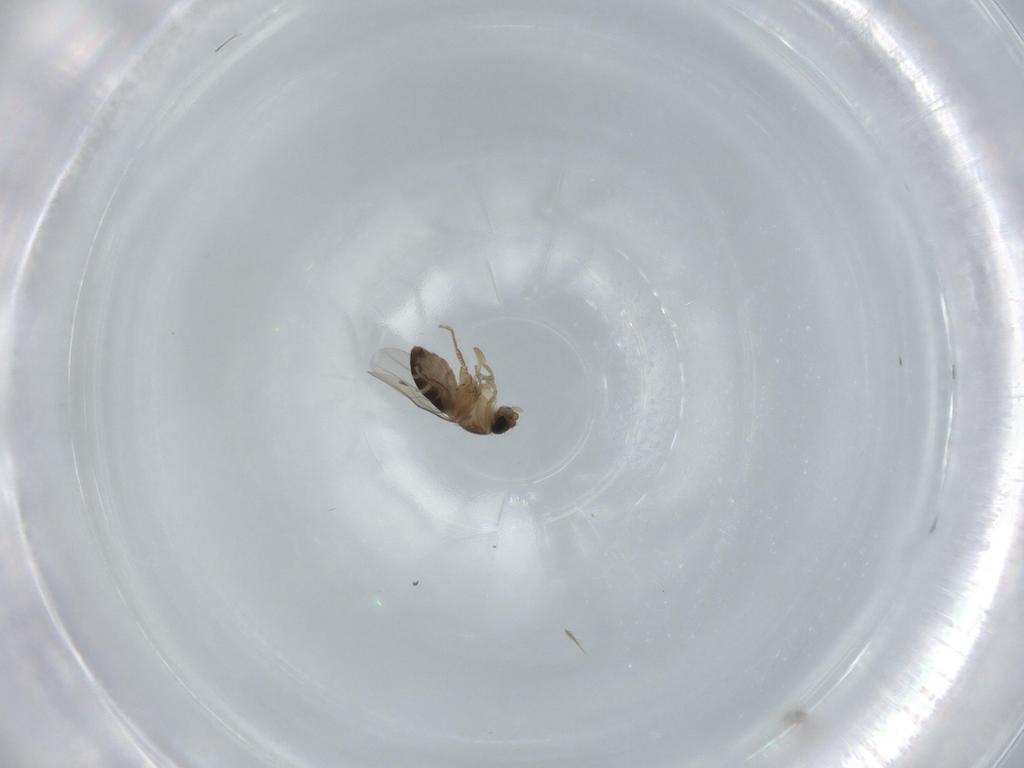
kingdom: Animalia
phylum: Arthropoda
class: Insecta
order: Diptera
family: Phoridae
